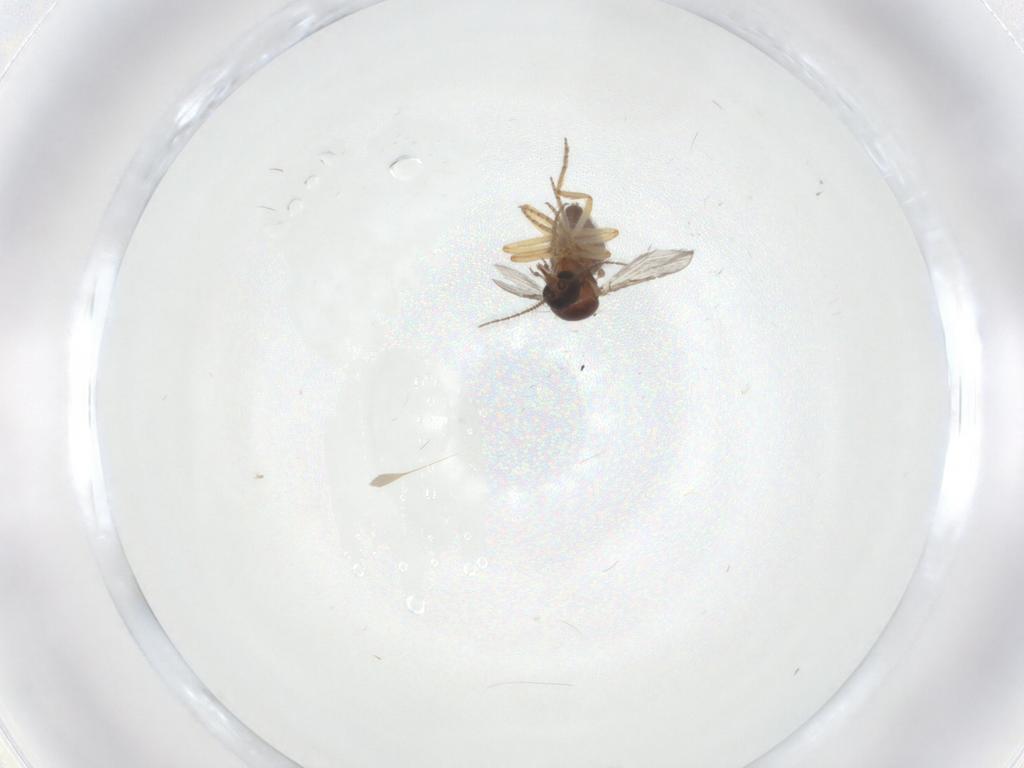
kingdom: Animalia
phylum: Arthropoda
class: Insecta
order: Diptera
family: Ceratopogonidae
